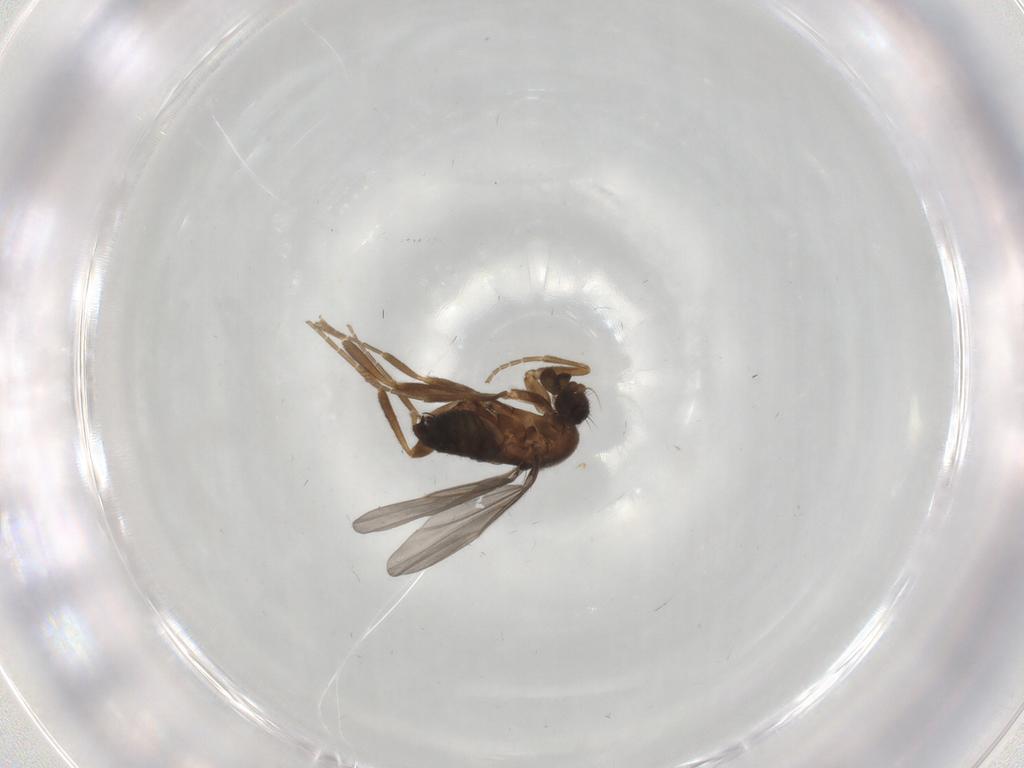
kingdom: Animalia
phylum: Arthropoda
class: Insecta
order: Diptera
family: Phoridae
